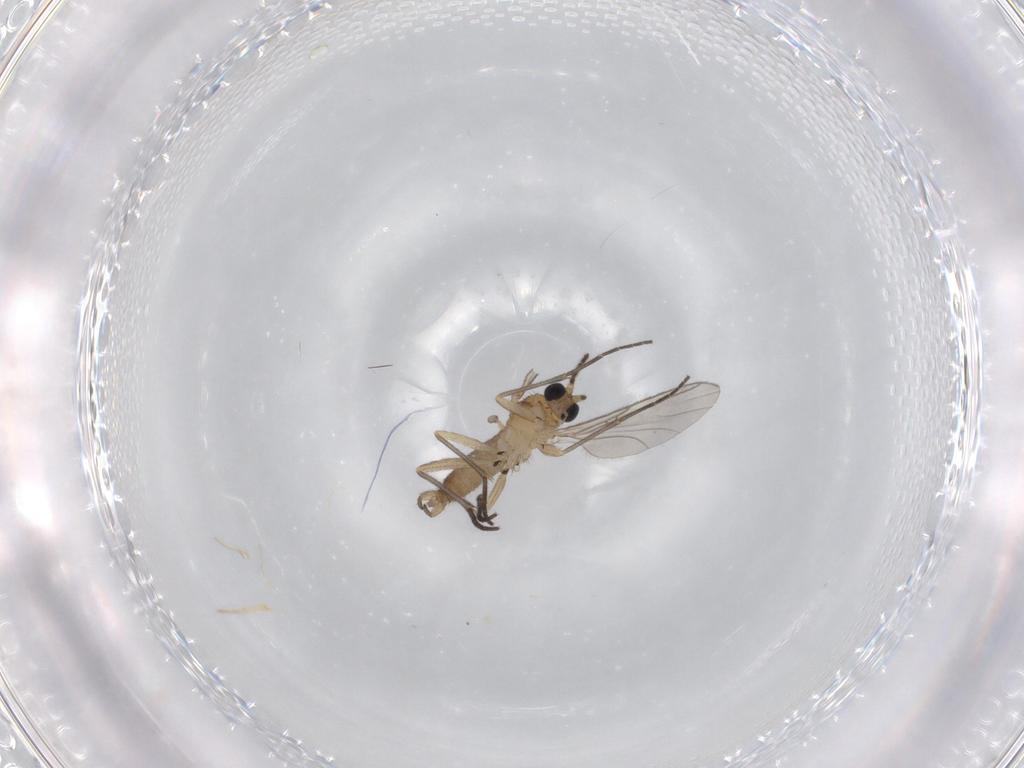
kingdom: Animalia
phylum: Arthropoda
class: Insecta
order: Diptera
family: Sciaridae
